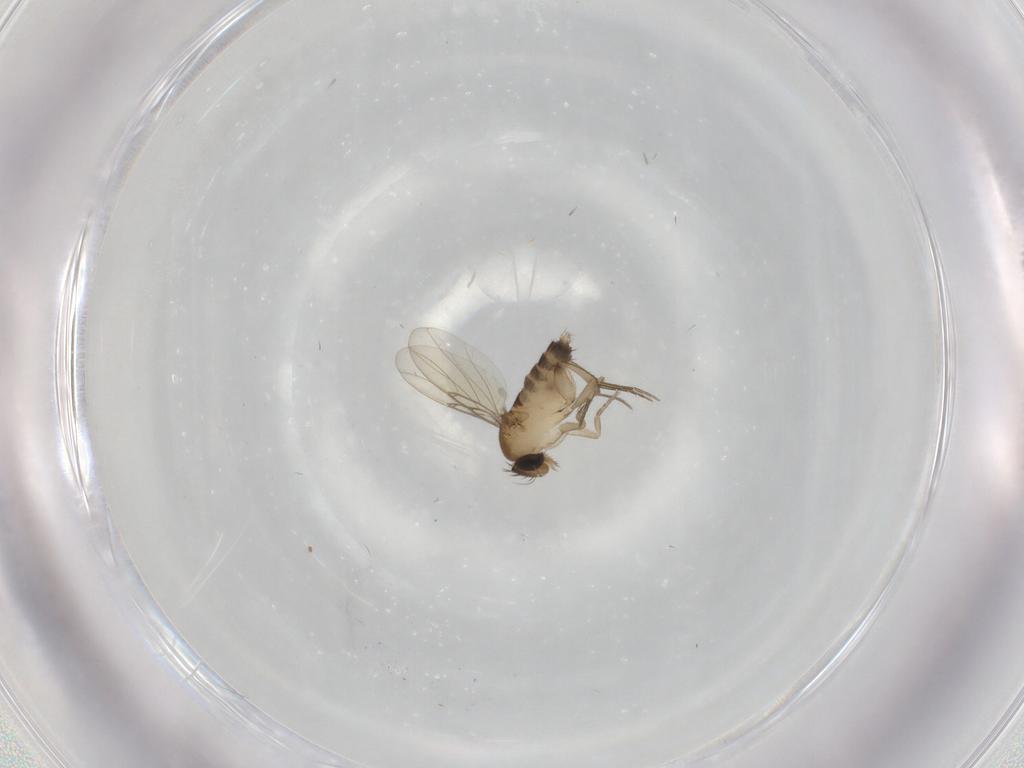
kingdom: Animalia
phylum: Arthropoda
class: Insecta
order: Diptera
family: Phoridae
